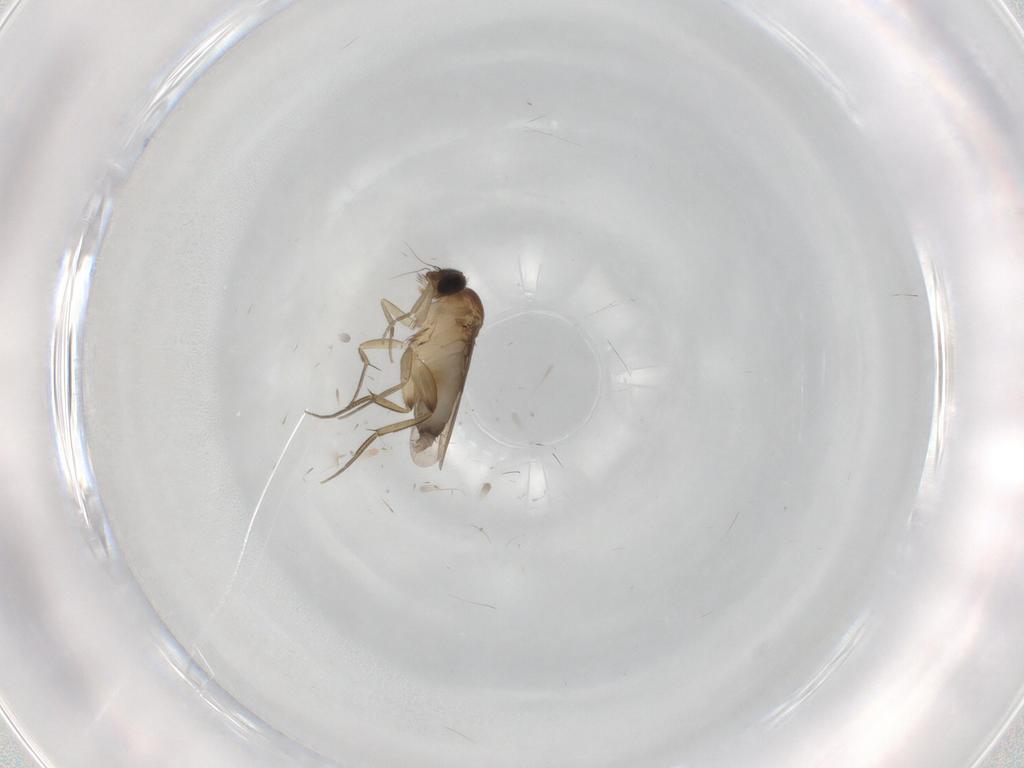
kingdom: Animalia
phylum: Arthropoda
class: Insecta
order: Diptera
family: Phoridae
